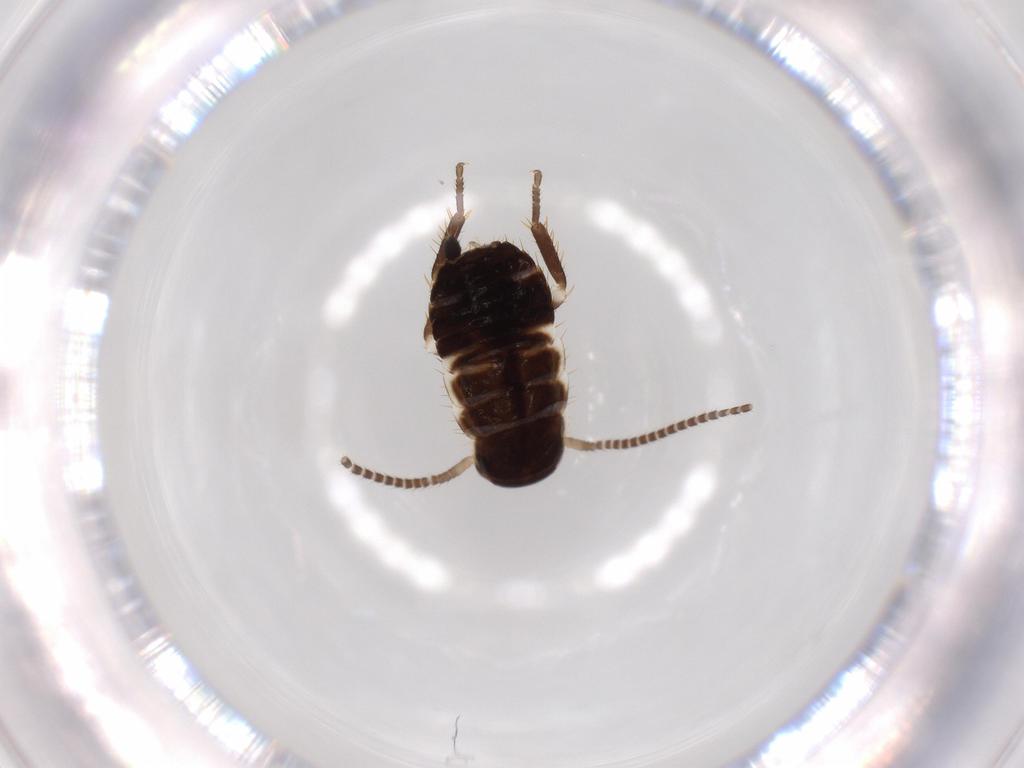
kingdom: Animalia
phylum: Arthropoda
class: Insecta
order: Blattodea
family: Ectobiidae
